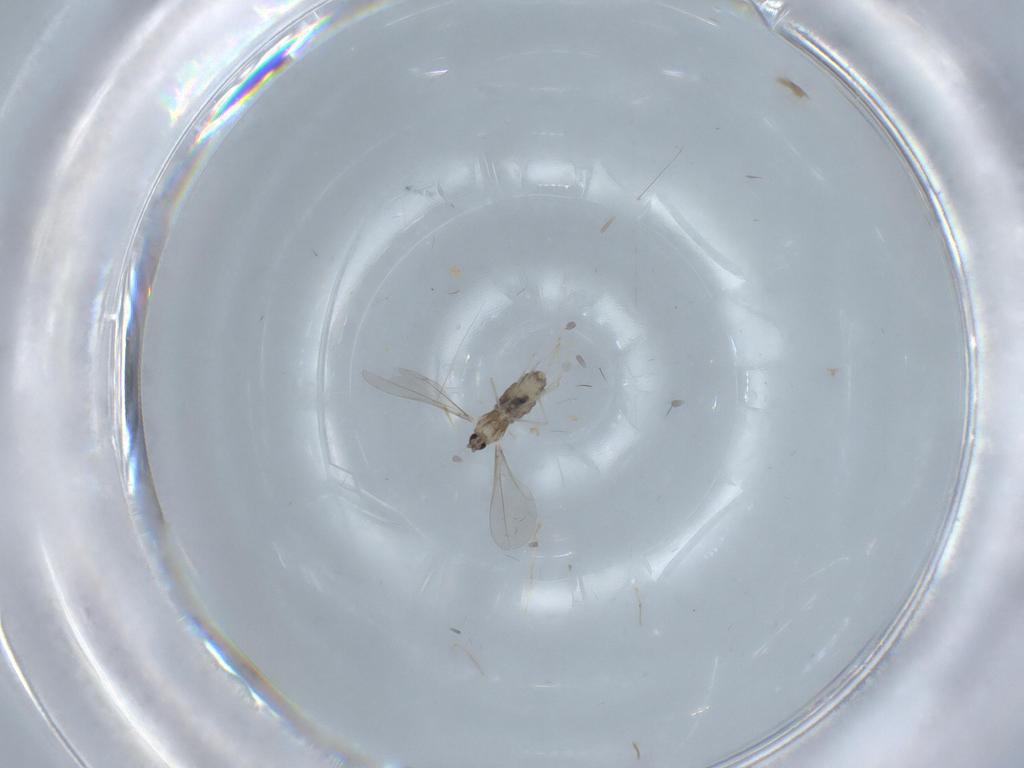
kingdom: Animalia
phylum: Arthropoda
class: Insecta
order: Diptera
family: Cecidomyiidae
